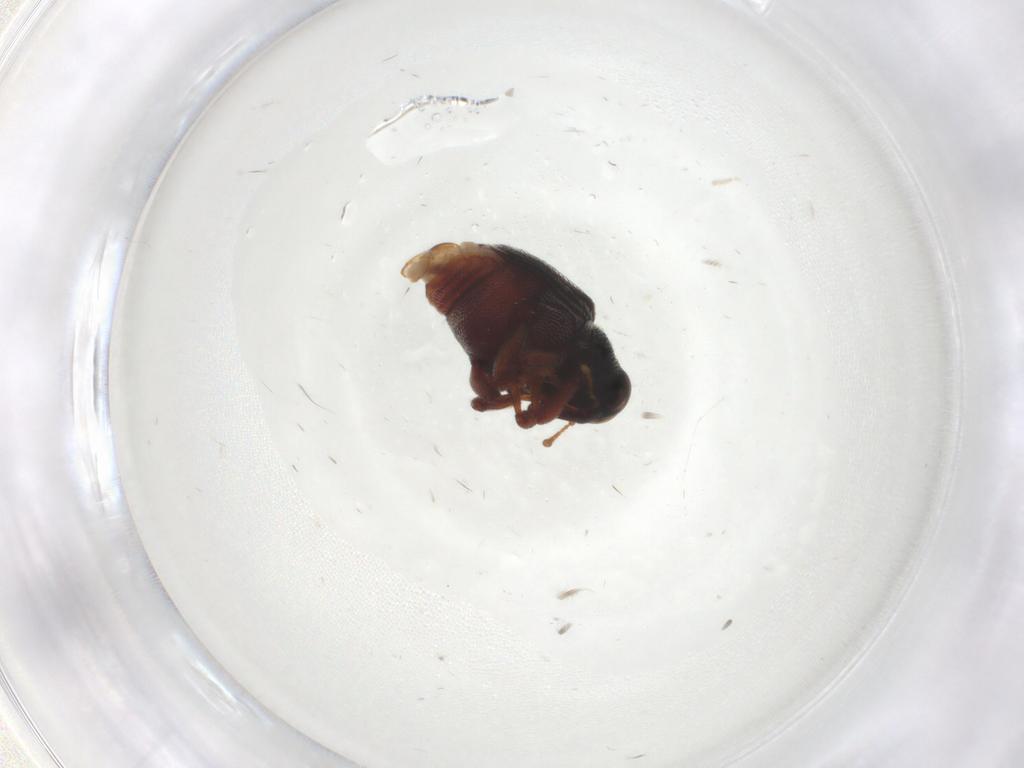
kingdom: Animalia
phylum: Arthropoda
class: Insecta
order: Coleoptera
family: Curculionidae
